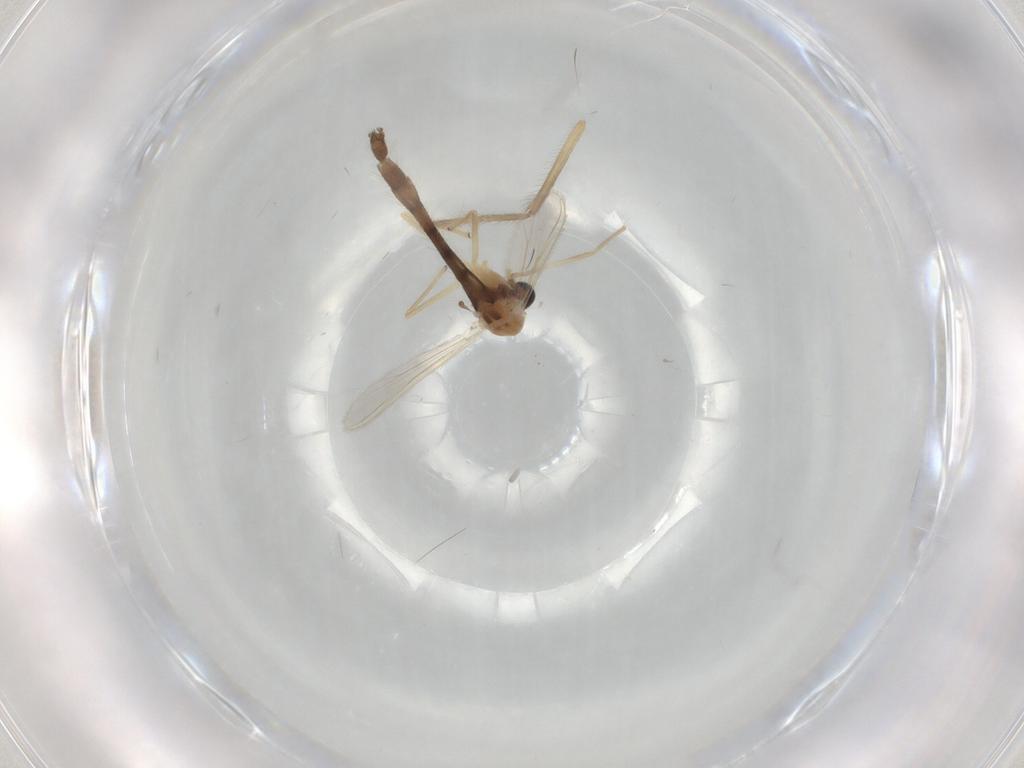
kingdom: Animalia
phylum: Arthropoda
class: Insecta
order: Diptera
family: Chironomidae
